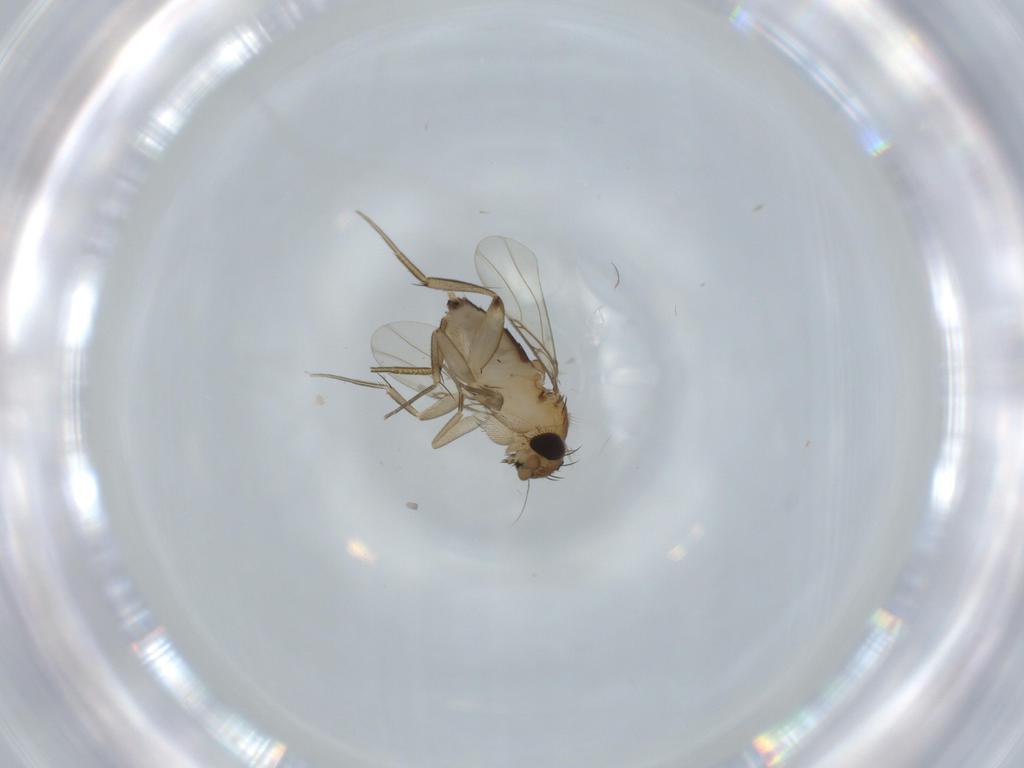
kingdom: Animalia
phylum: Arthropoda
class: Insecta
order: Diptera
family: Phoridae
